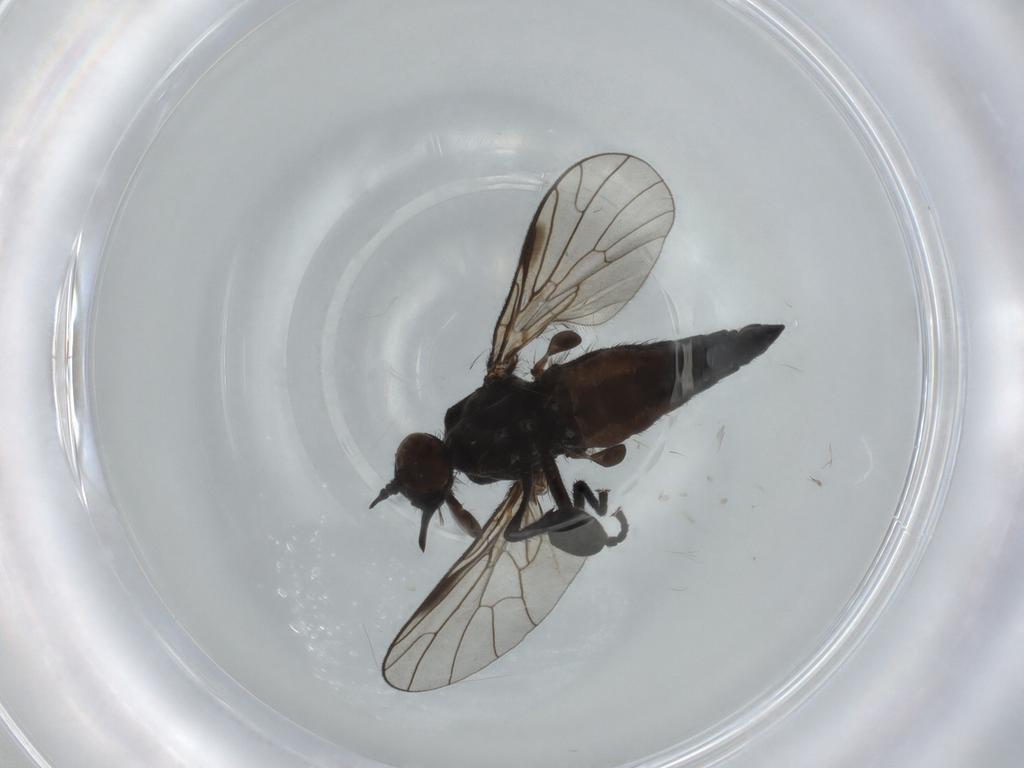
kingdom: Animalia
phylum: Arthropoda
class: Insecta
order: Diptera
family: Empididae
